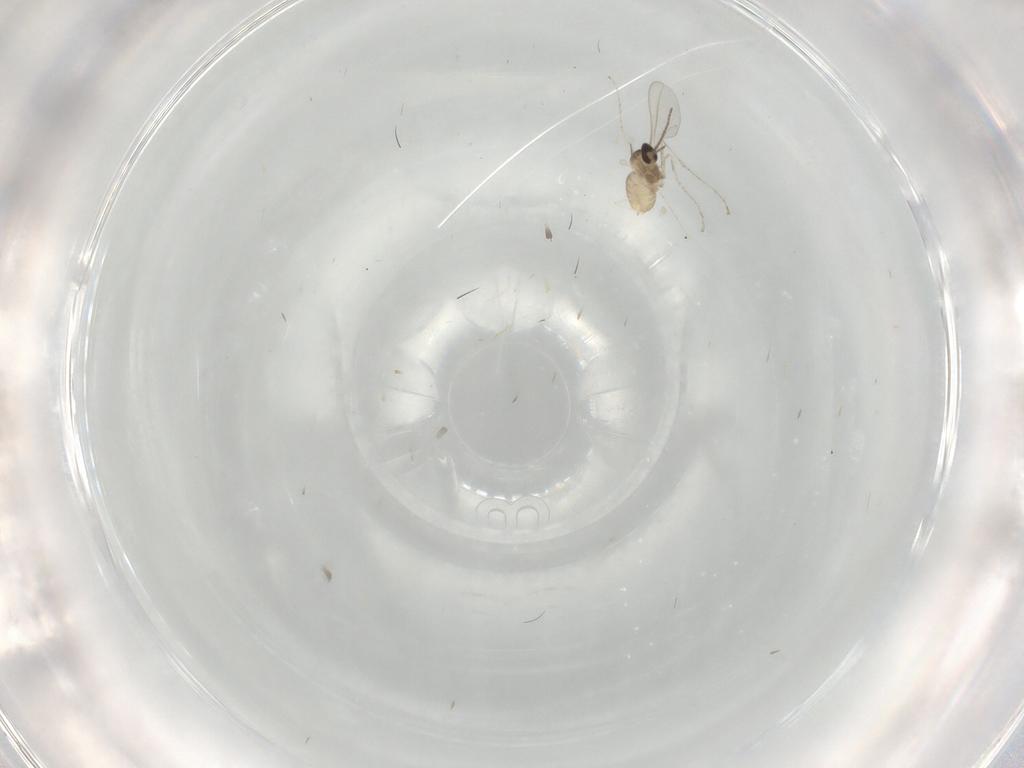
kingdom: Animalia
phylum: Arthropoda
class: Insecta
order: Diptera
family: Cecidomyiidae
